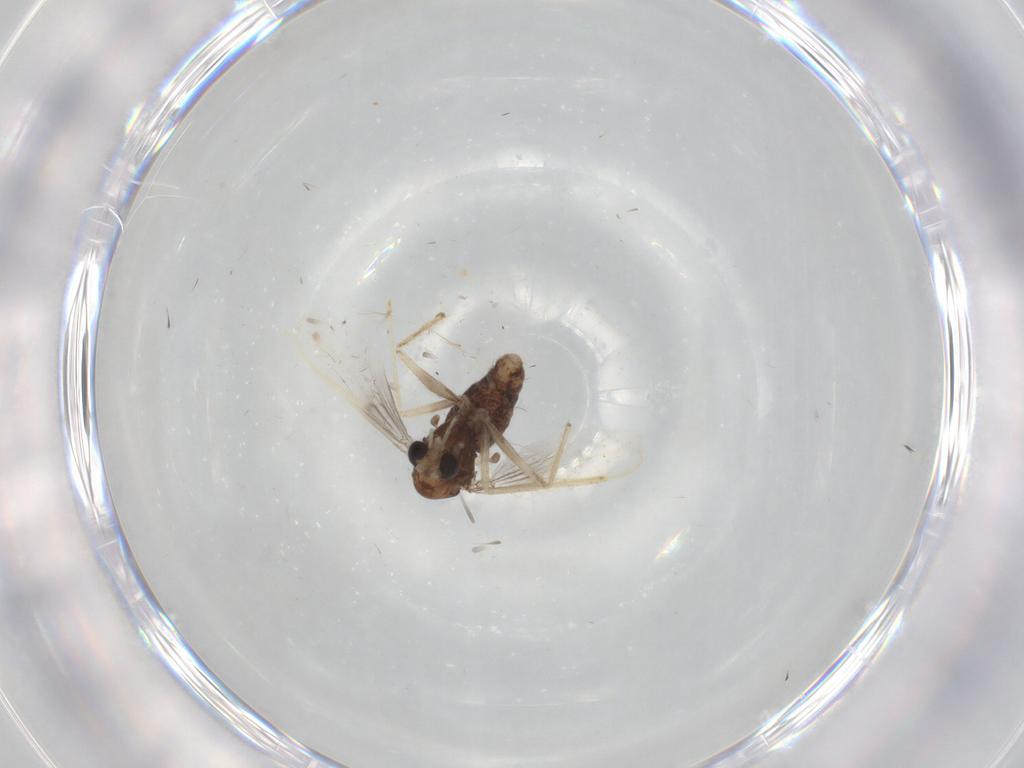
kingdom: Animalia
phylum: Arthropoda
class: Insecta
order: Diptera
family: Chironomidae
